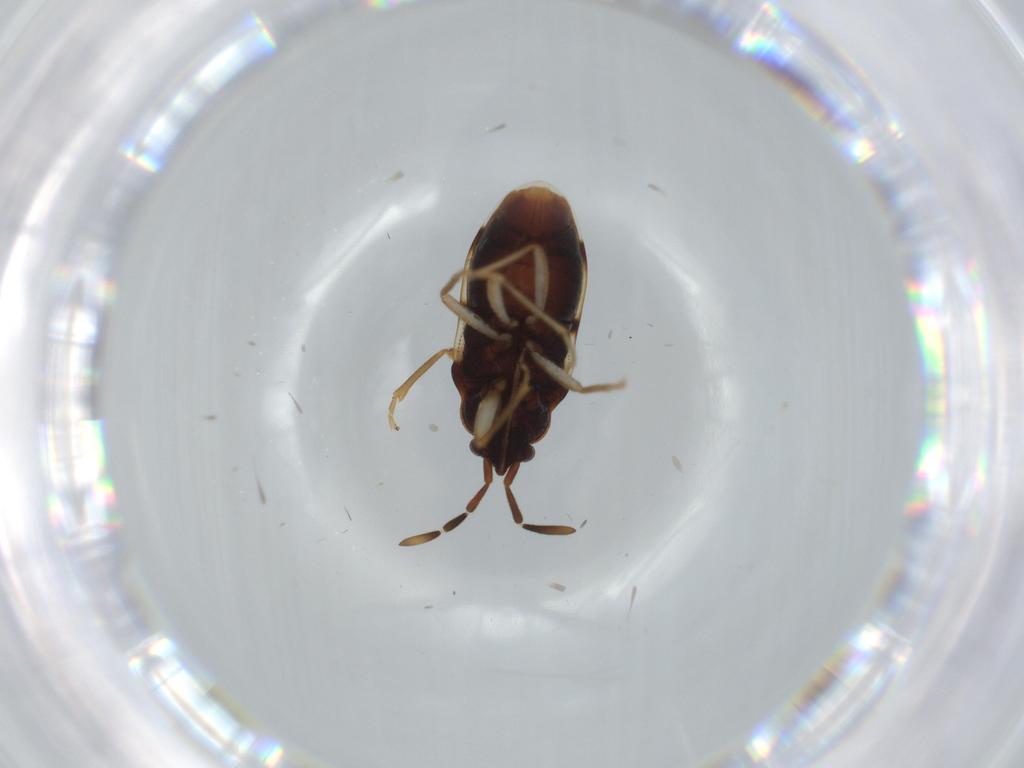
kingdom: Animalia
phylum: Arthropoda
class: Insecta
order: Hemiptera
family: Rhyparochromidae
